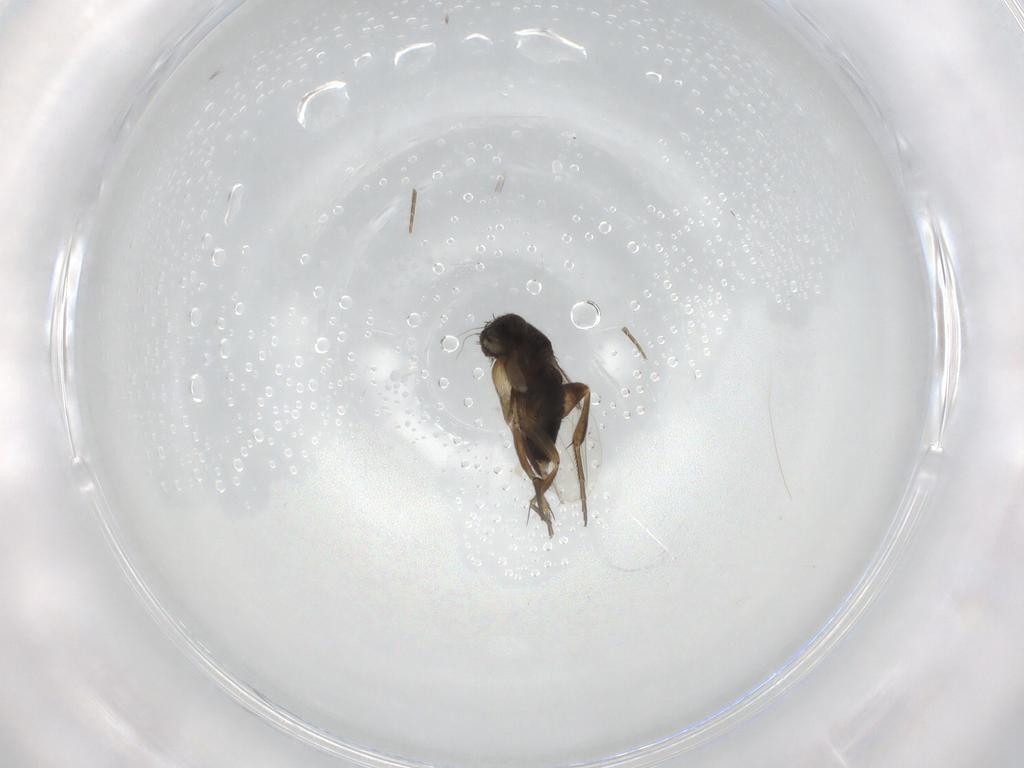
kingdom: Animalia
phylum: Arthropoda
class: Insecta
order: Diptera
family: Phoridae
